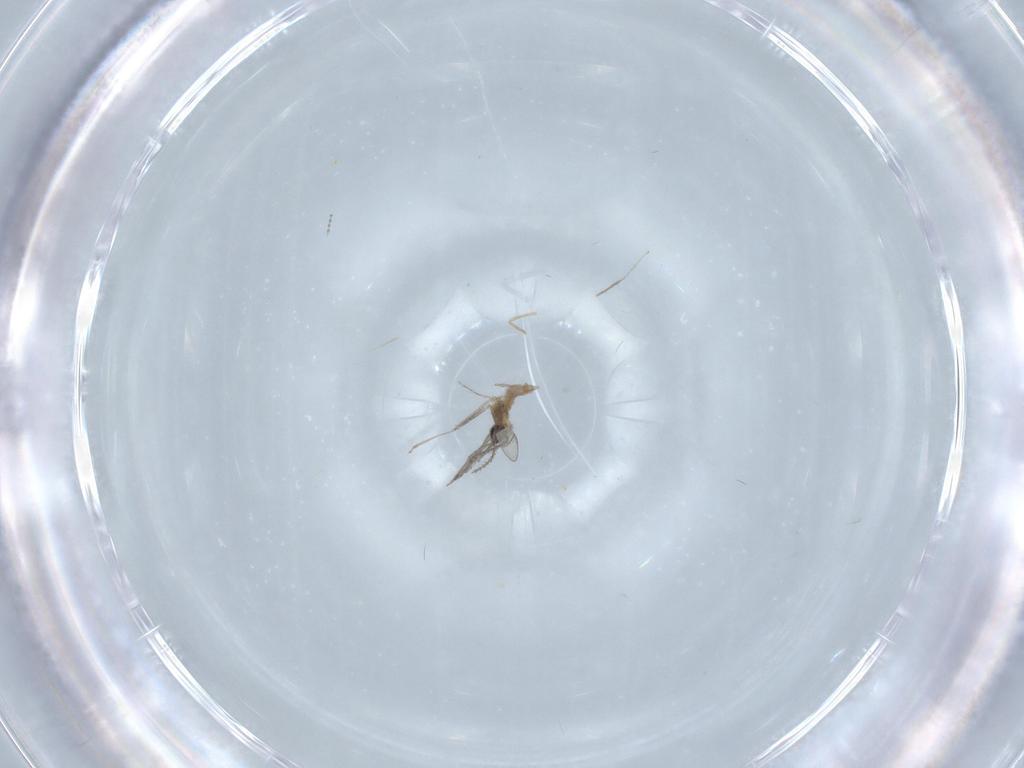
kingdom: Animalia
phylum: Arthropoda
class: Insecta
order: Diptera
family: Cecidomyiidae
